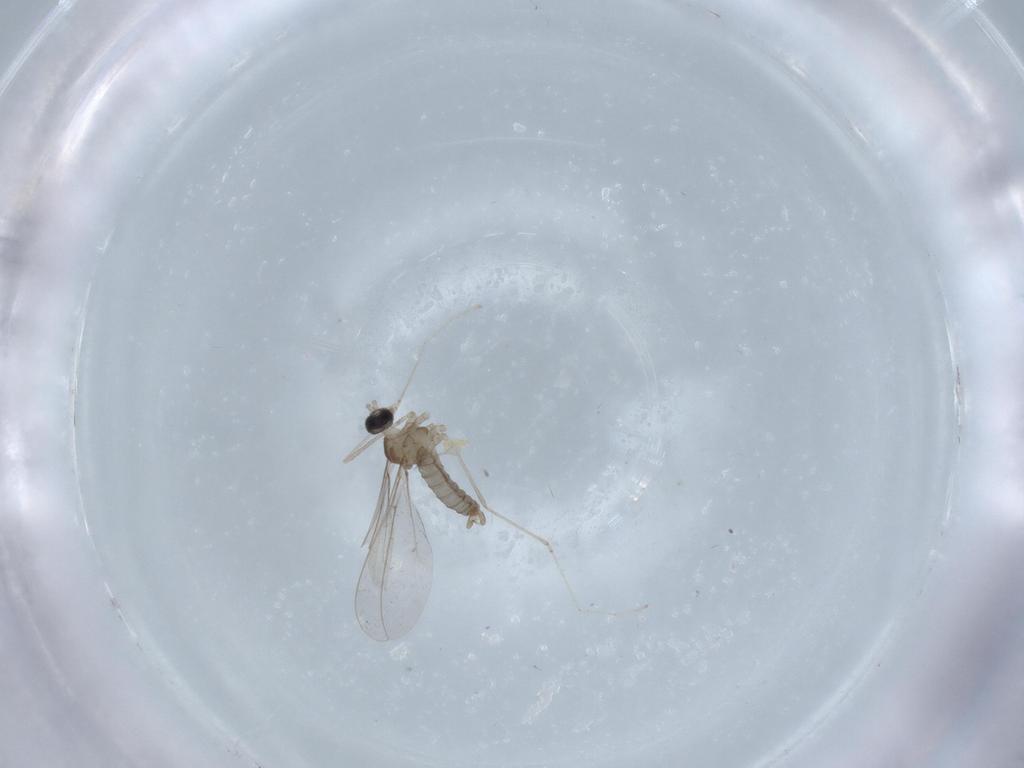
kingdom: Animalia
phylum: Arthropoda
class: Insecta
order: Diptera
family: Cecidomyiidae
